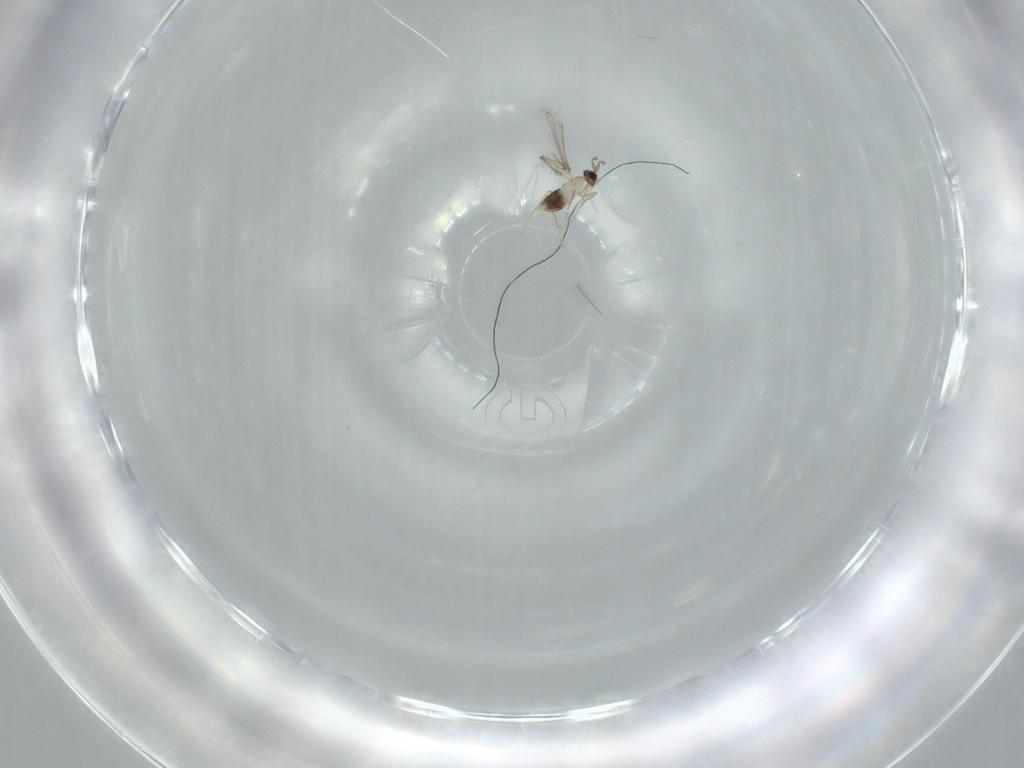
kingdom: Animalia
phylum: Arthropoda
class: Insecta
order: Hymenoptera
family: Mymaridae
